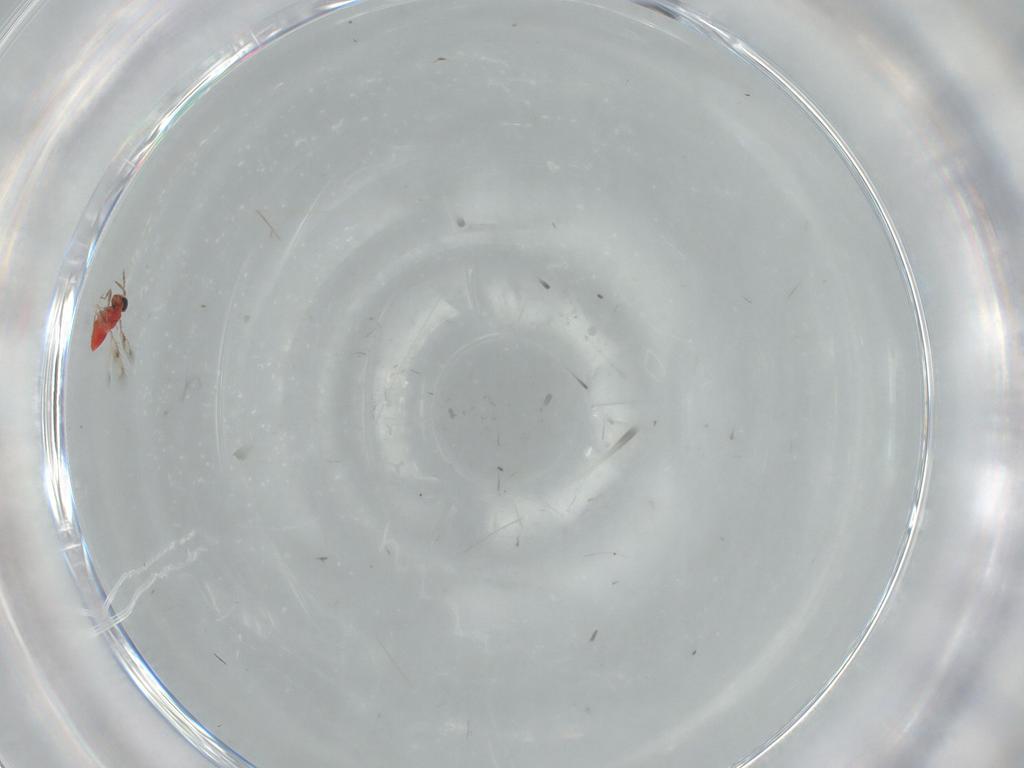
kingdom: Animalia
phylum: Arthropoda
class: Insecta
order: Hymenoptera
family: Trichogrammatidae
